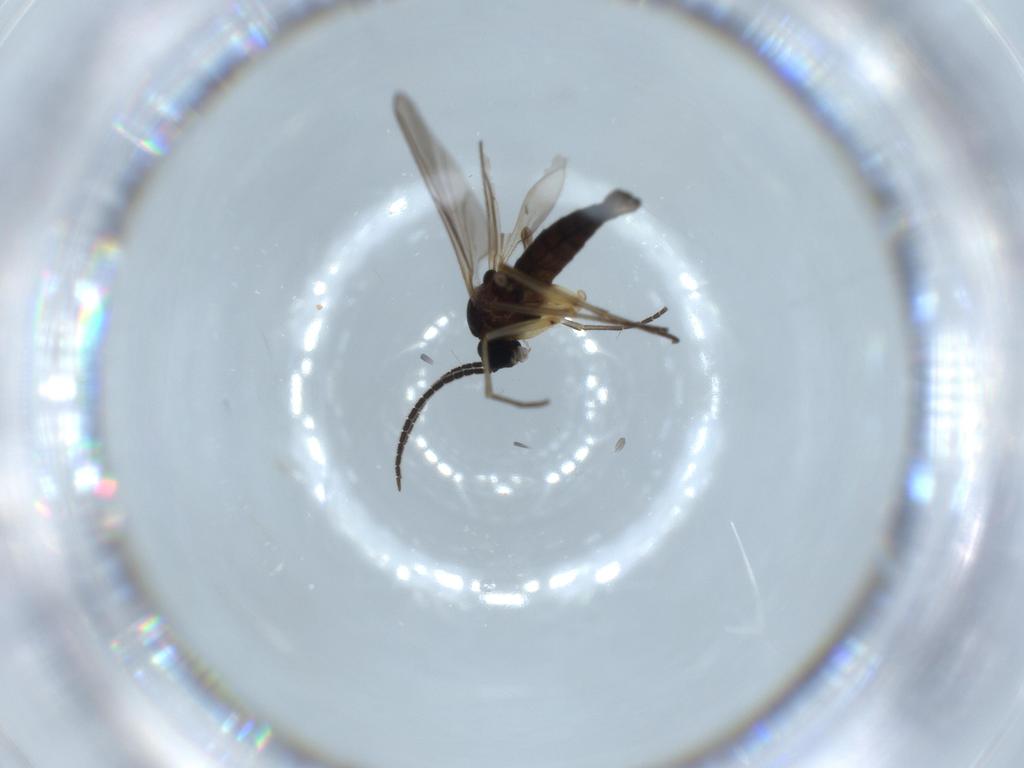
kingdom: Animalia
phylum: Arthropoda
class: Insecta
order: Diptera
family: Sciaridae
